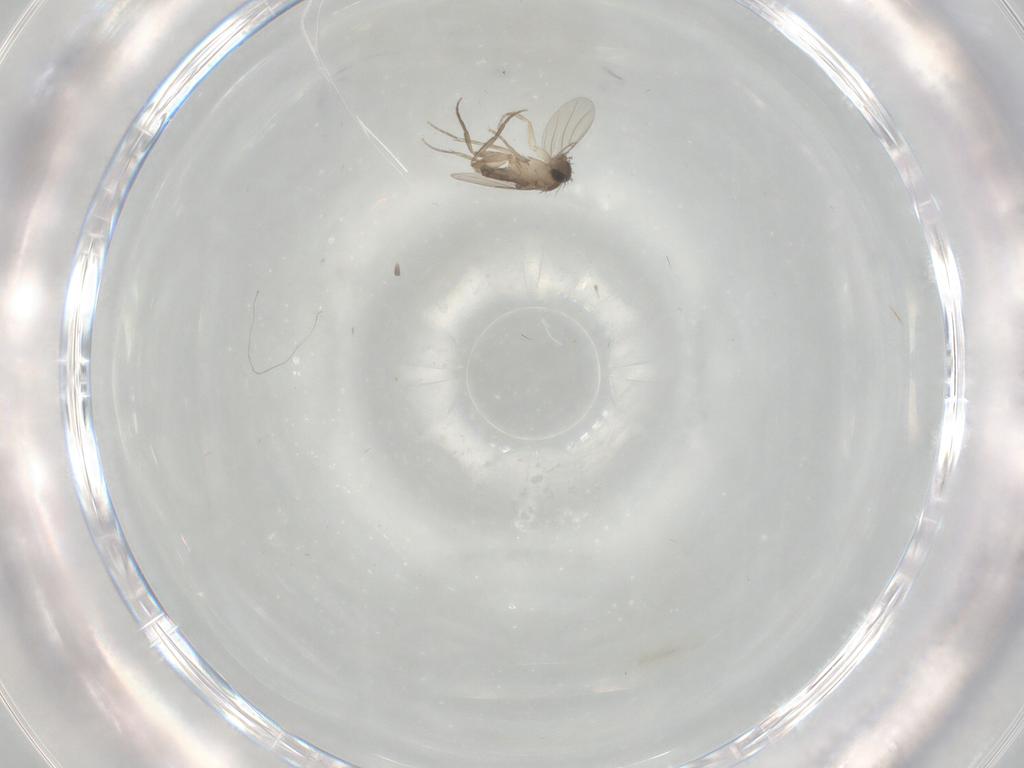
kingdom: Animalia
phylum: Arthropoda
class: Insecta
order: Diptera
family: Phoridae
